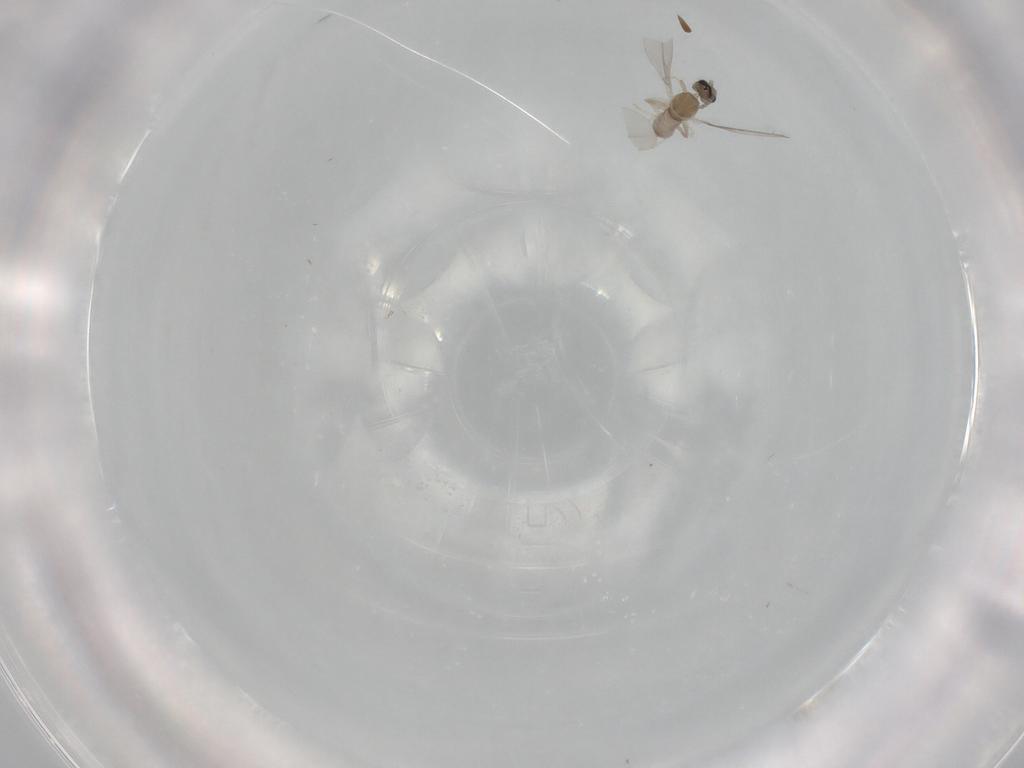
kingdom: Animalia
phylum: Arthropoda
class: Insecta
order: Diptera
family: Cecidomyiidae
